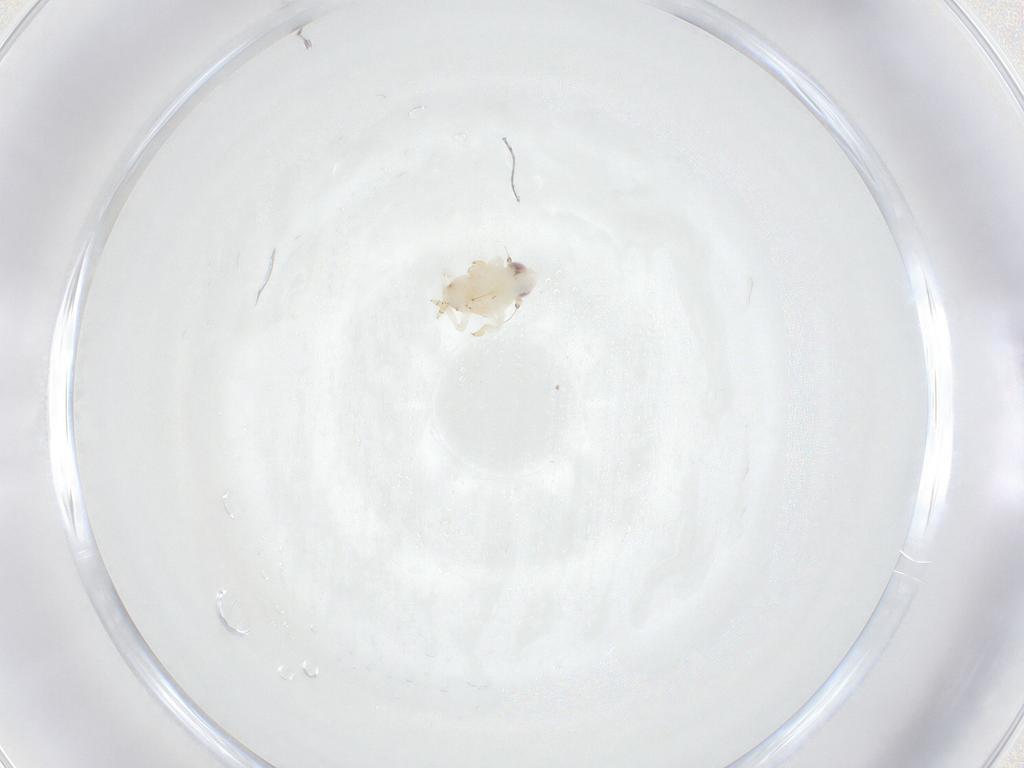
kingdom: Animalia
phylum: Arthropoda
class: Insecta
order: Hemiptera
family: Nogodinidae
